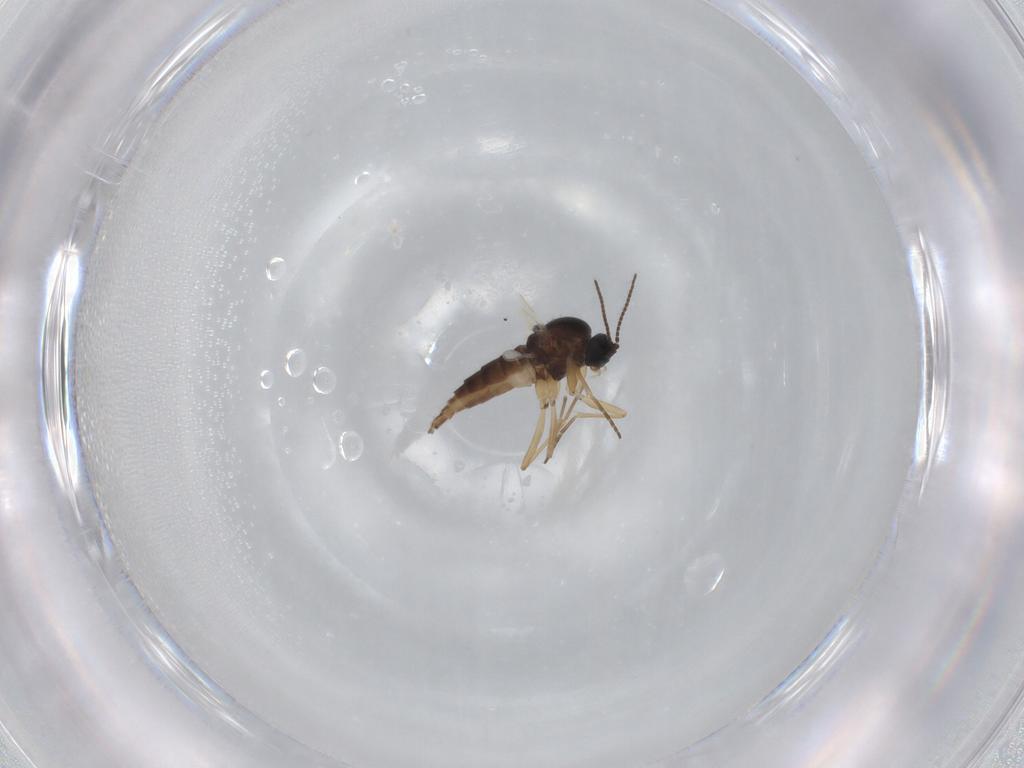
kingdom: Animalia
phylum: Arthropoda
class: Insecta
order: Diptera
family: Sciaridae
